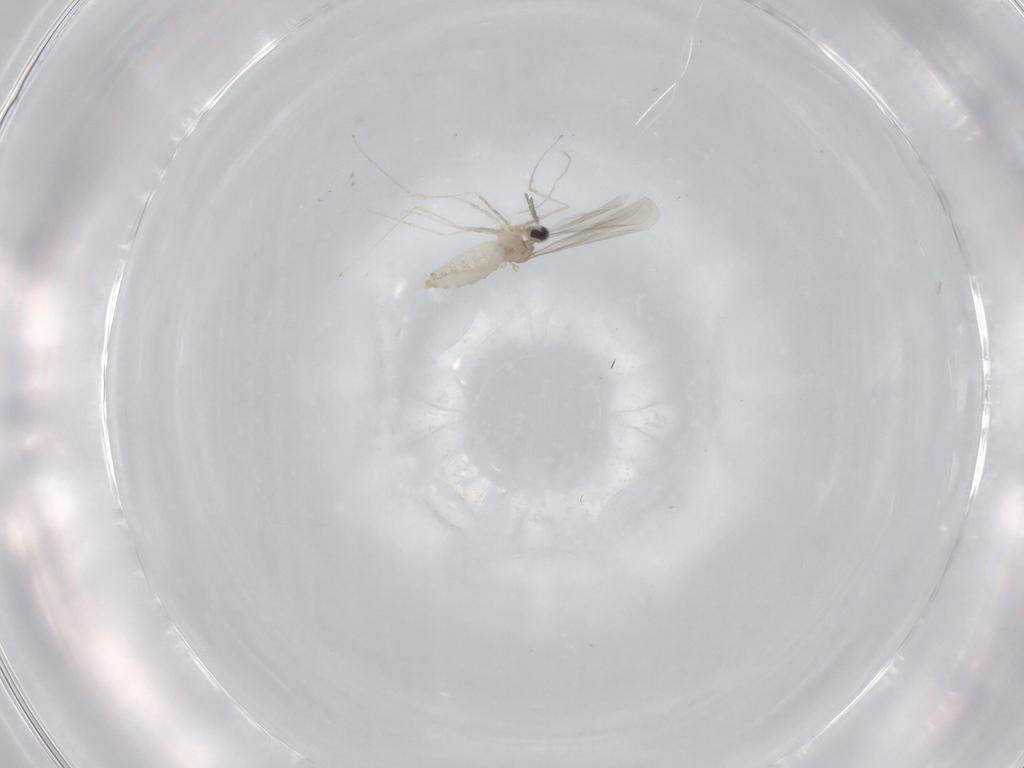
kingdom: Animalia
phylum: Arthropoda
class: Insecta
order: Diptera
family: Cecidomyiidae
